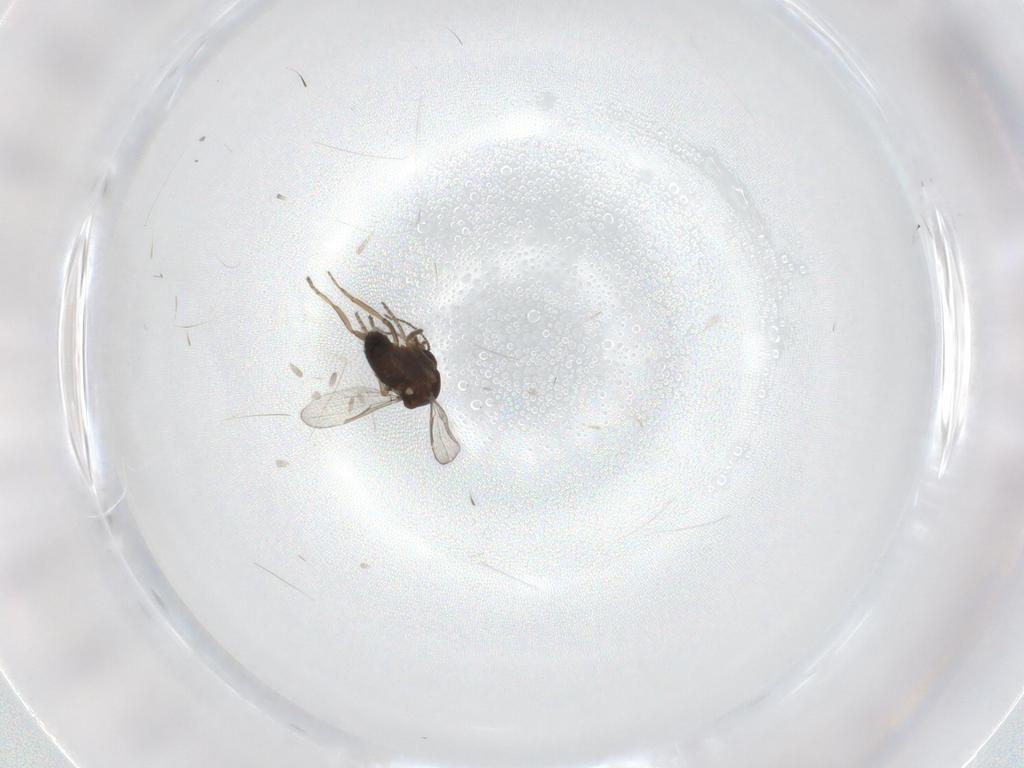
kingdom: Animalia
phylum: Arthropoda
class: Insecta
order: Diptera
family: Ceratopogonidae
